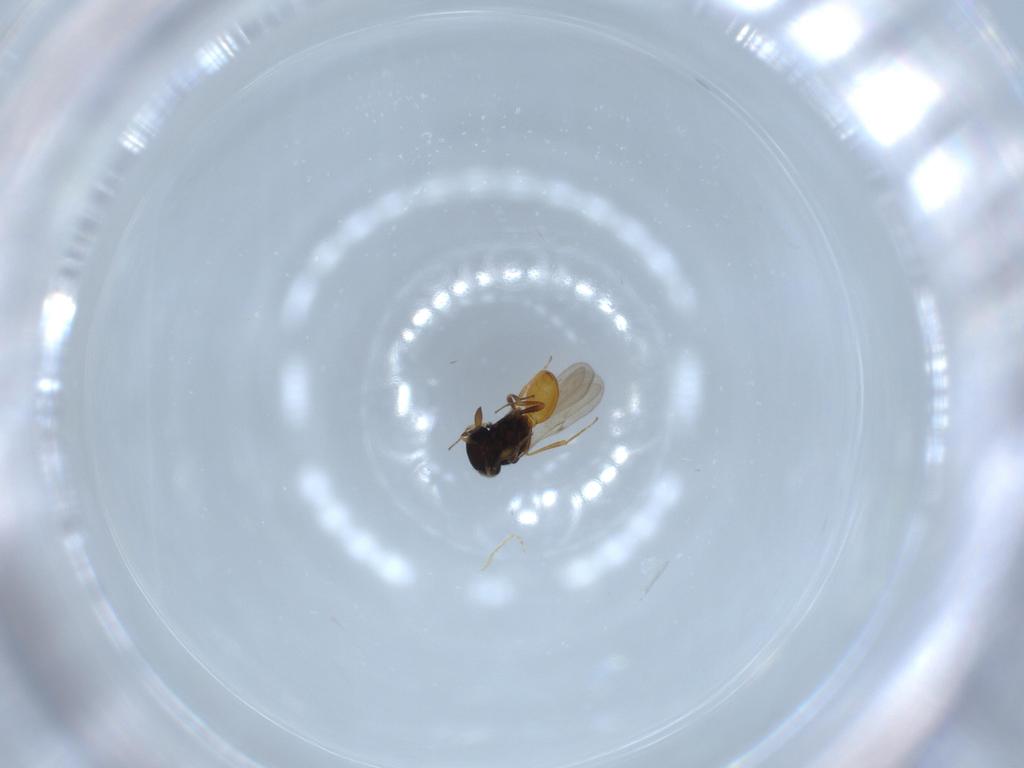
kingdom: Animalia
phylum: Arthropoda
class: Insecta
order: Hymenoptera
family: Scelionidae
